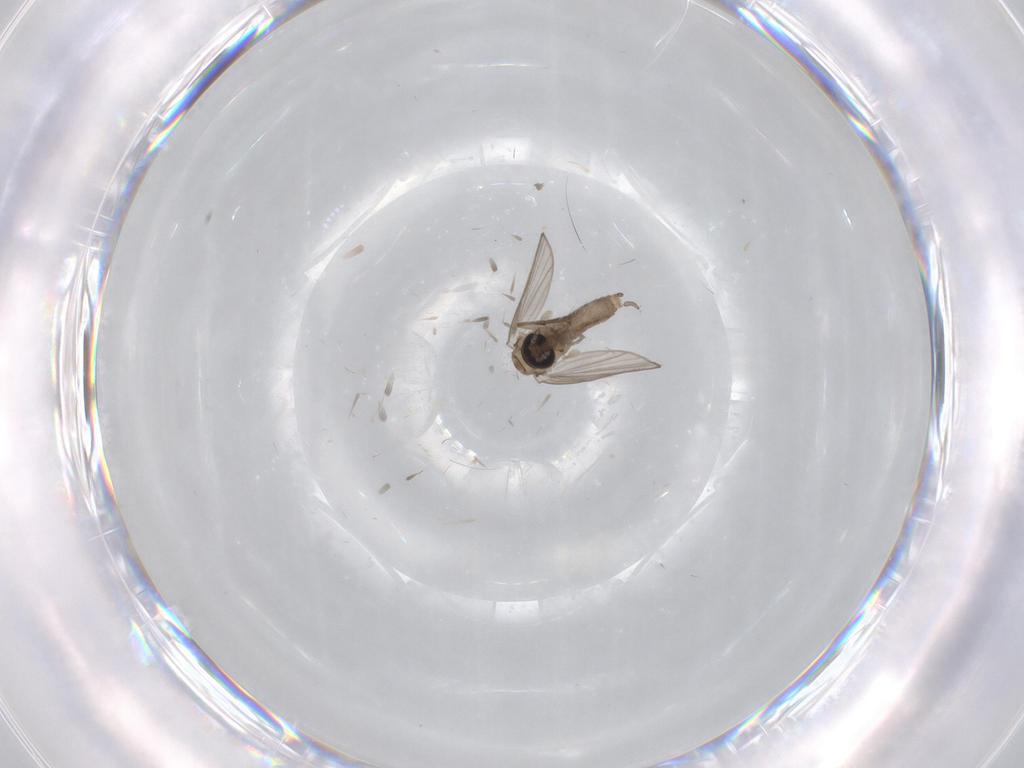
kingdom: Animalia
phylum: Arthropoda
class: Insecta
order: Diptera
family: Psychodidae
